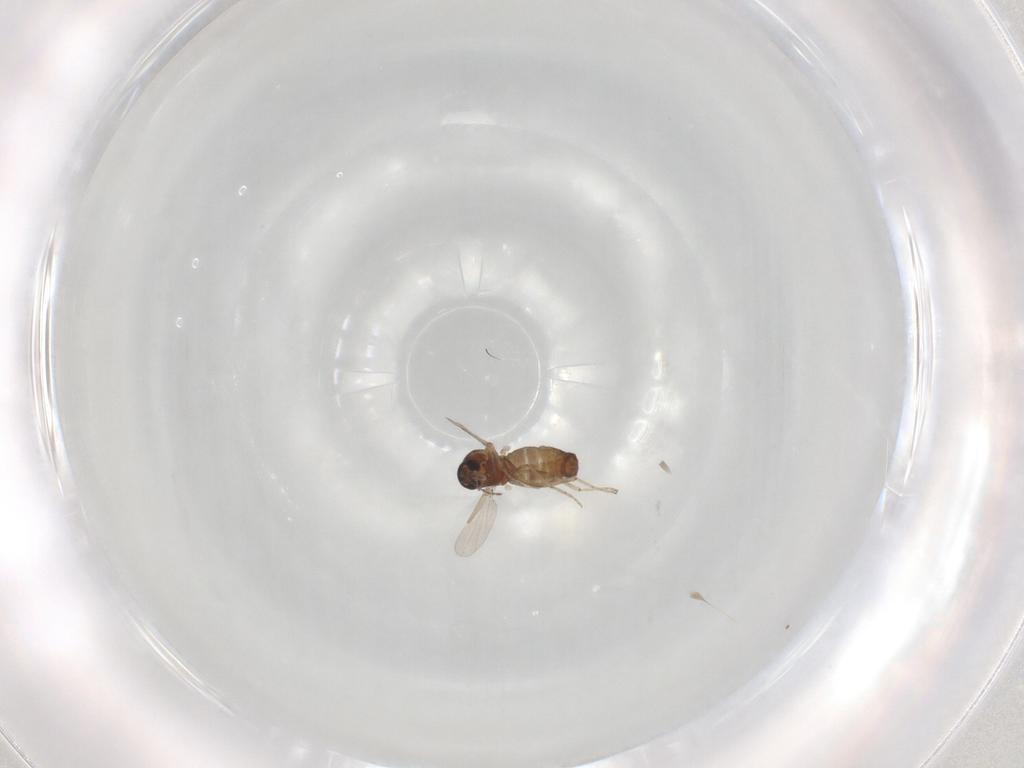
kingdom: Animalia
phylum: Arthropoda
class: Insecta
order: Diptera
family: Ceratopogonidae
